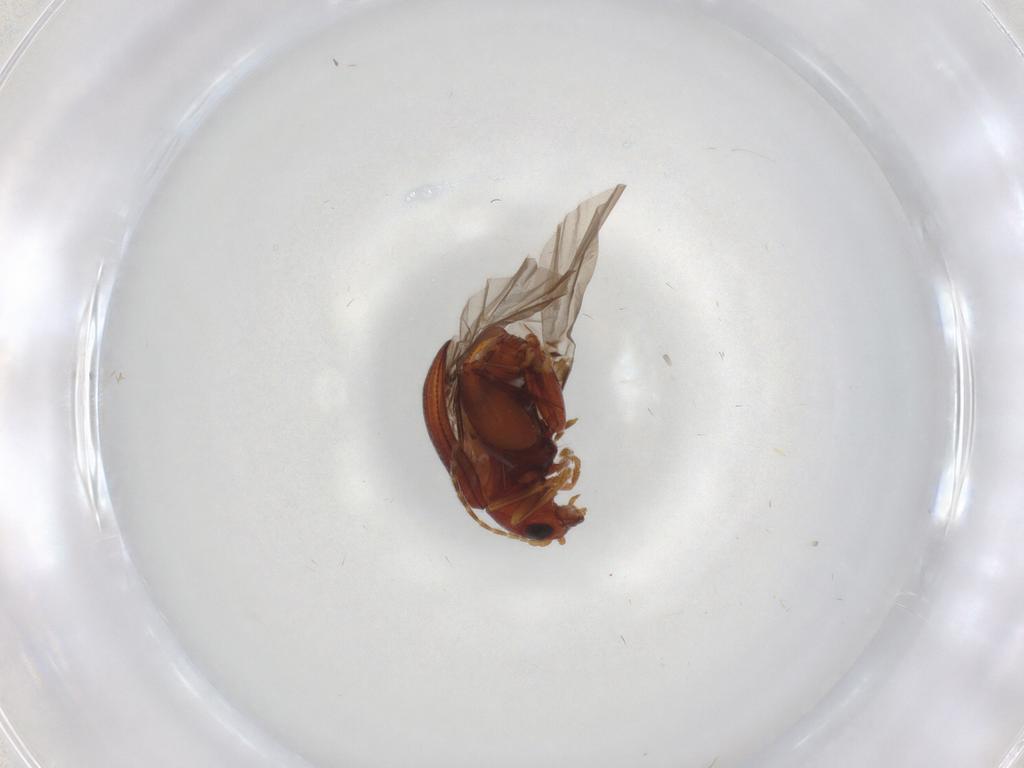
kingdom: Animalia
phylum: Arthropoda
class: Insecta
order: Coleoptera
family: Chrysomelidae
